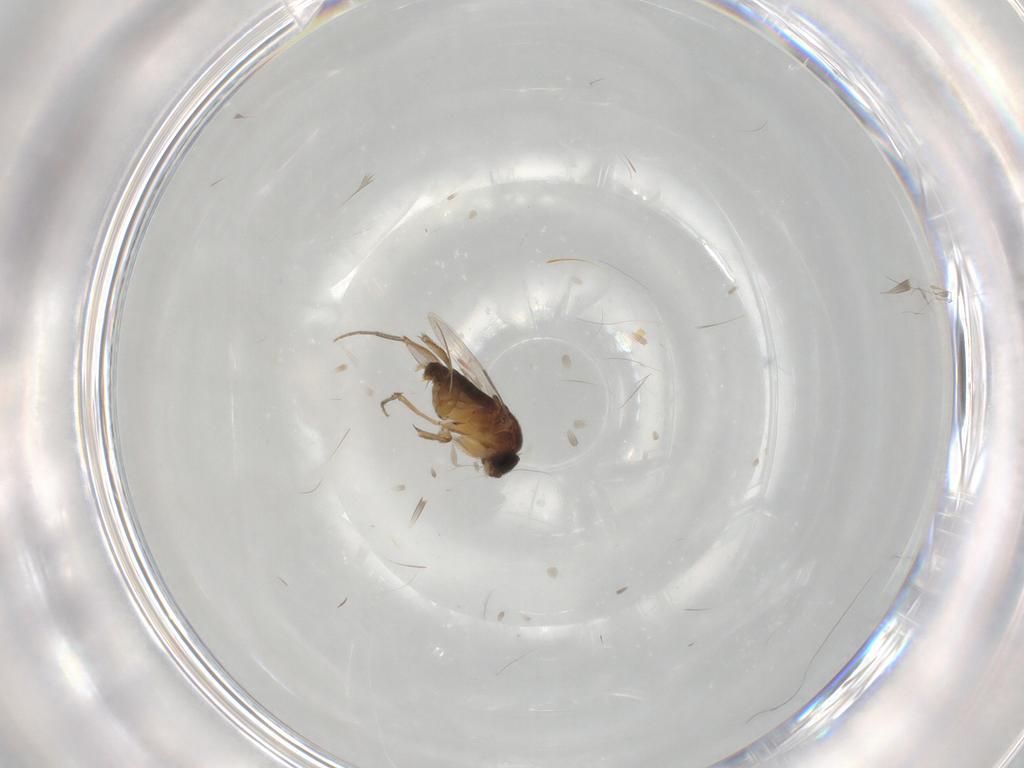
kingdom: Animalia
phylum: Arthropoda
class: Insecta
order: Diptera
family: Phoridae
